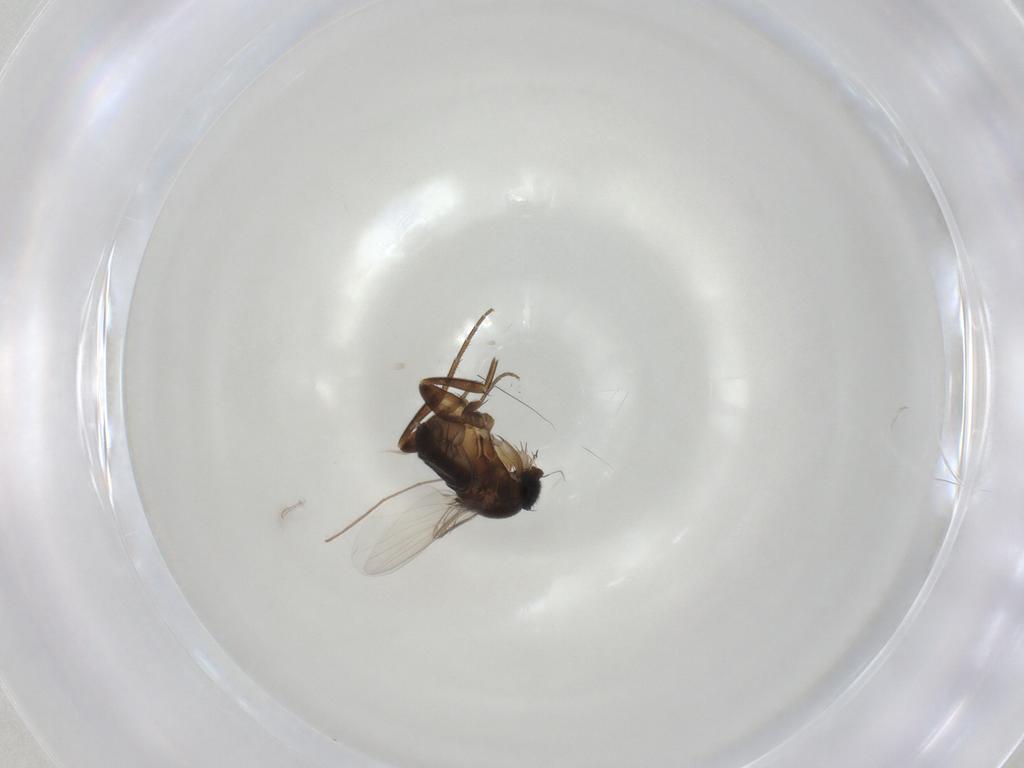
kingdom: Animalia
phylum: Arthropoda
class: Insecta
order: Diptera
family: Phoridae
